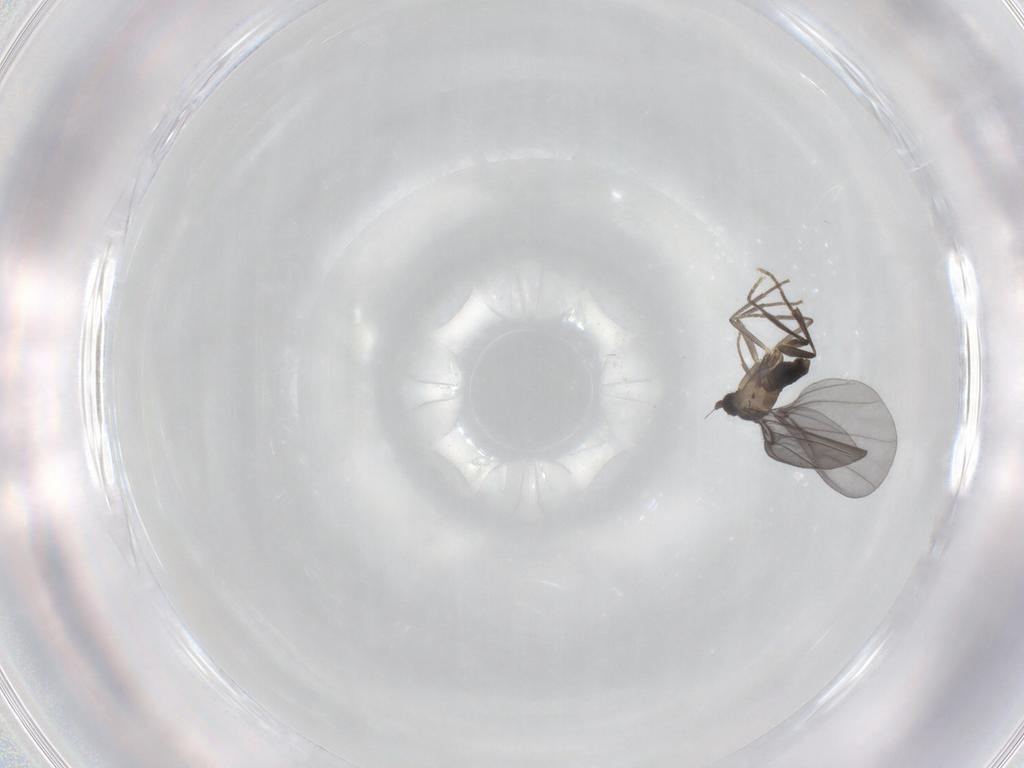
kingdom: Animalia
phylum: Arthropoda
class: Insecta
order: Diptera
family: Phoridae
